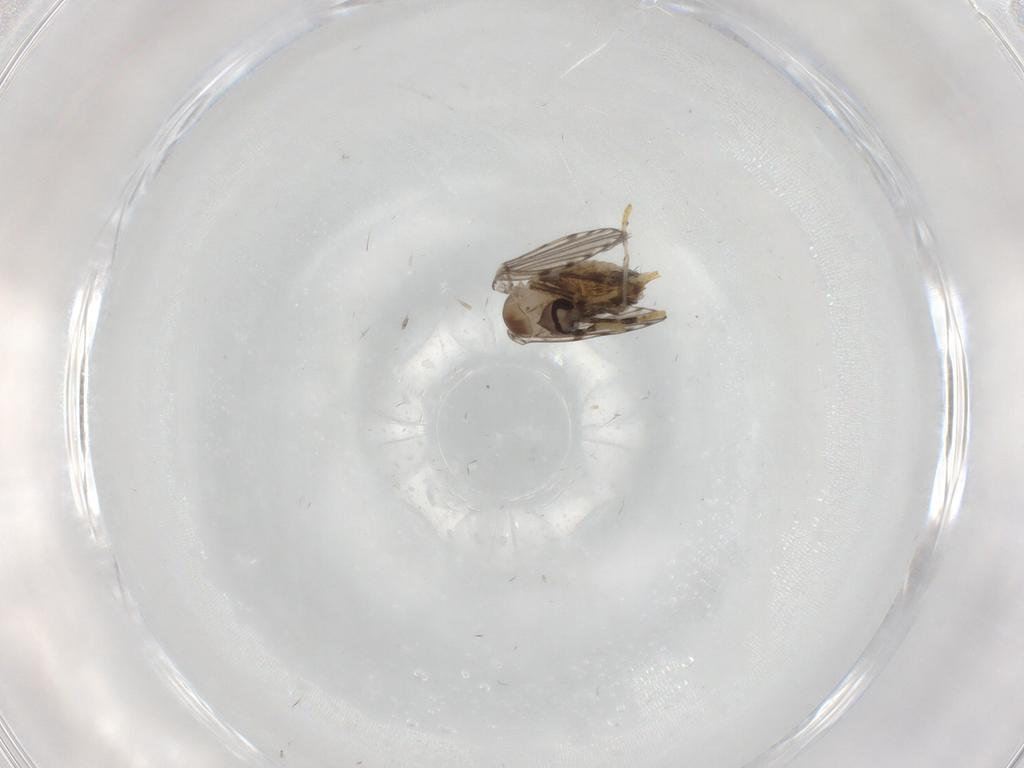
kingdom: Animalia
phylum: Arthropoda
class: Insecta
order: Diptera
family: Psychodidae
